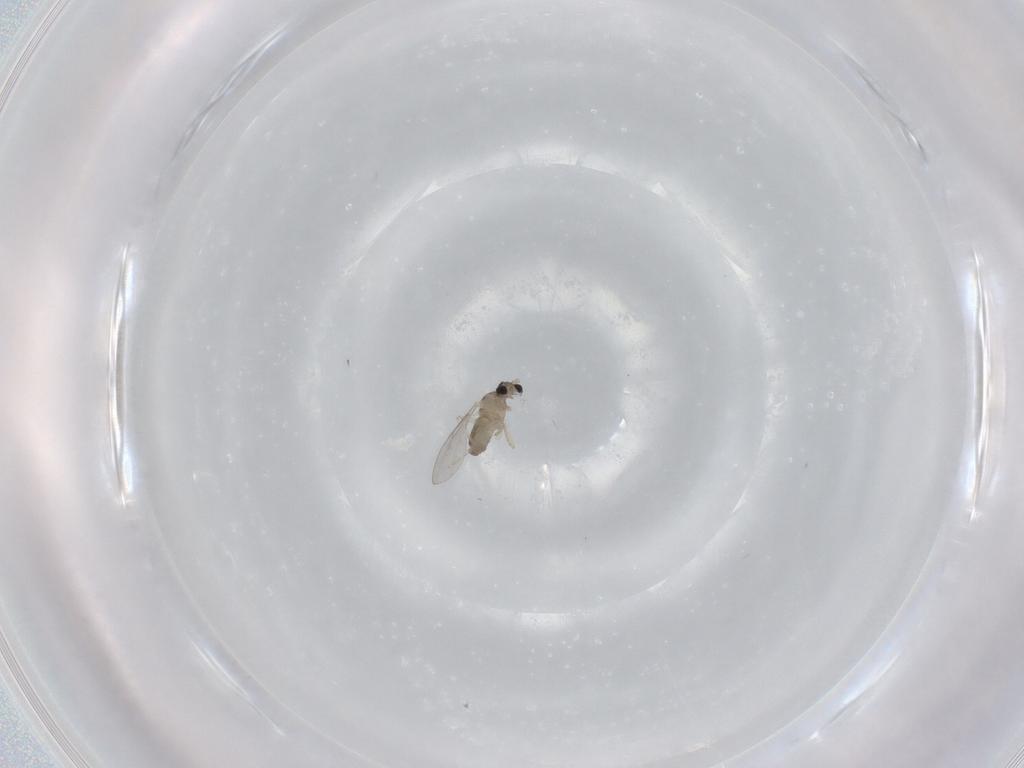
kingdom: Animalia
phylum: Arthropoda
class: Insecta
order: Diptera
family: Cecidomyiidae
